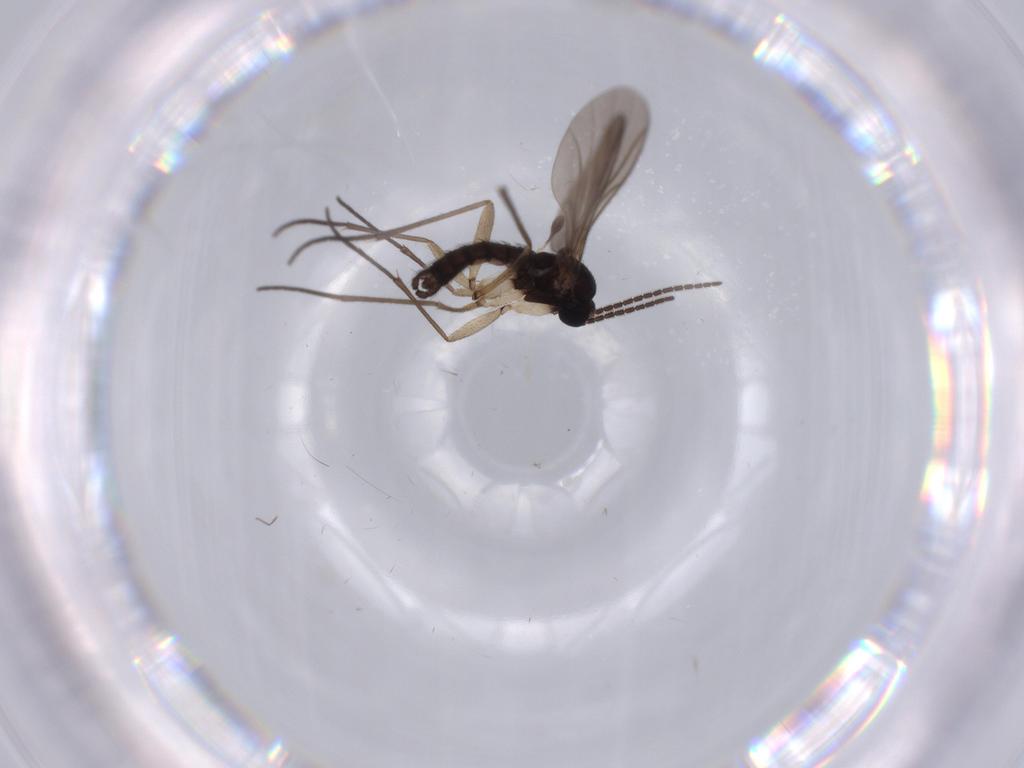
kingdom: Animalia
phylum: Arthropoda
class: Insecta
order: Diptera
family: Sciaridae
